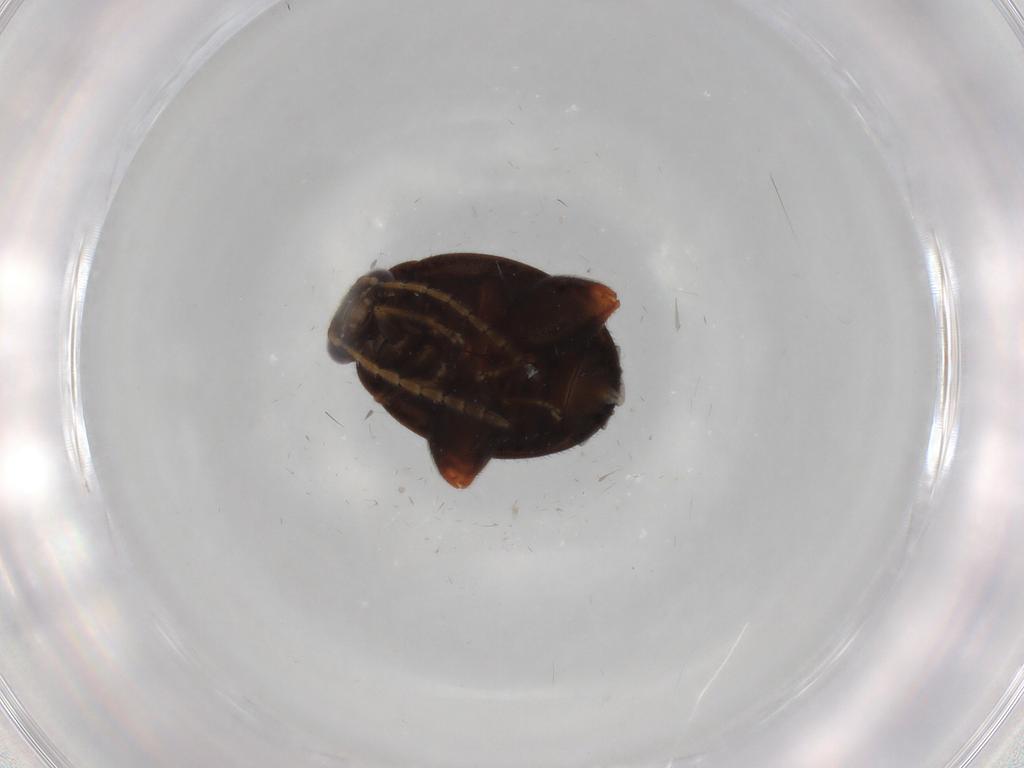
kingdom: Animalia
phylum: Arthropoda
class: Insecta
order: Coleoptera
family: Scirtidae
